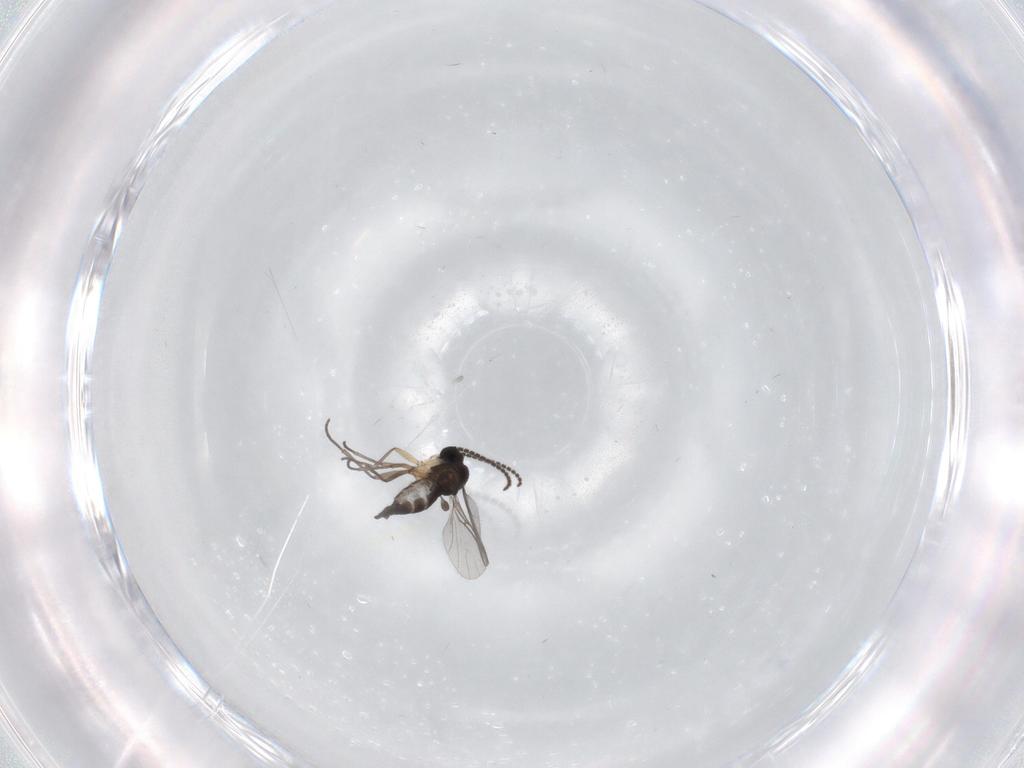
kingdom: Animalia
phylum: Arthropoda
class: Insecta
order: Diptera
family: Sciaridae
